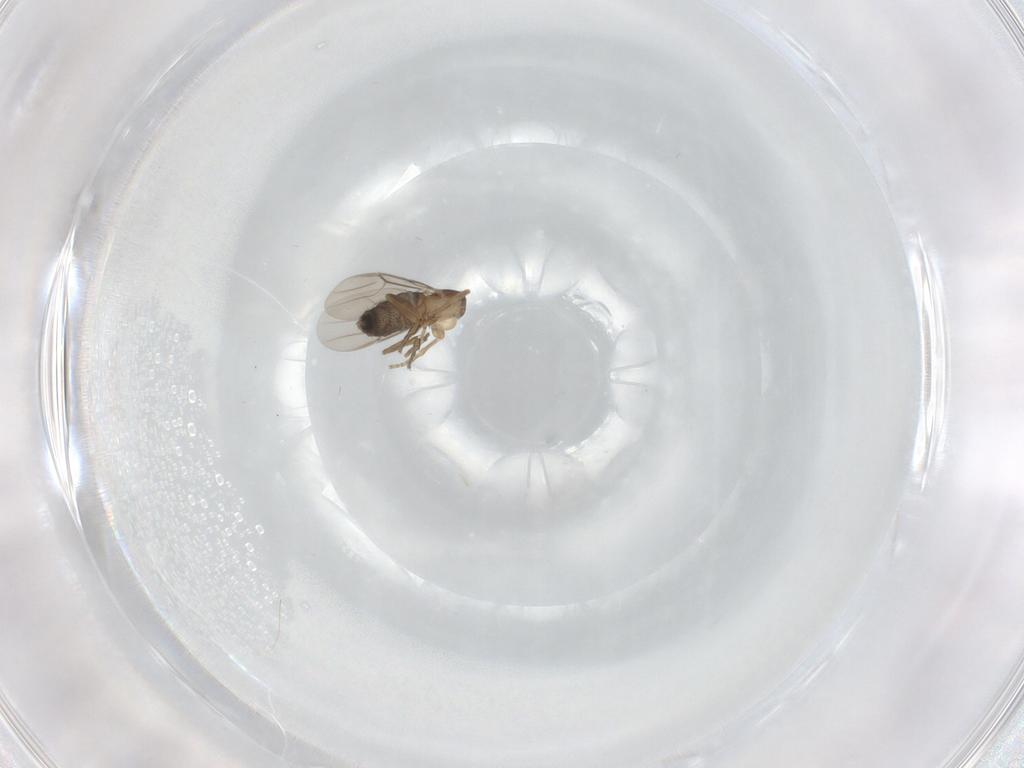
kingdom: Animalia
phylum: Arthropoda
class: Insecta
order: Diptera
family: Phoridae
